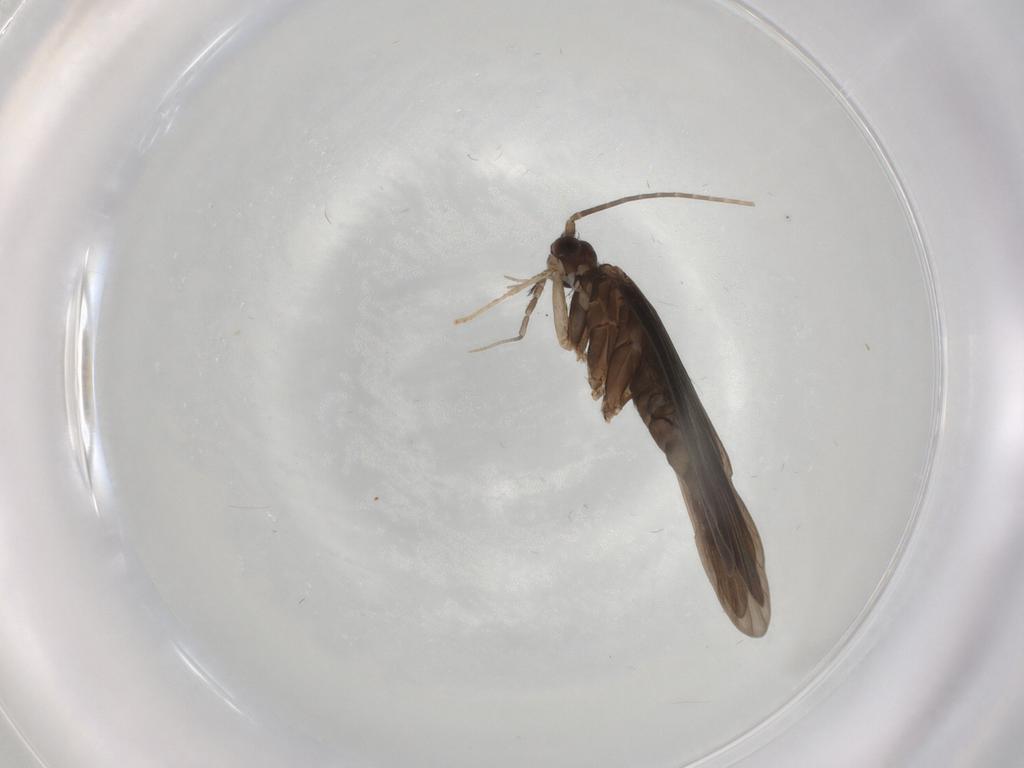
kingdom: Animalia
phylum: Arthropoda
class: Insecta
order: Trichoptera
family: Xiphocentronidae
